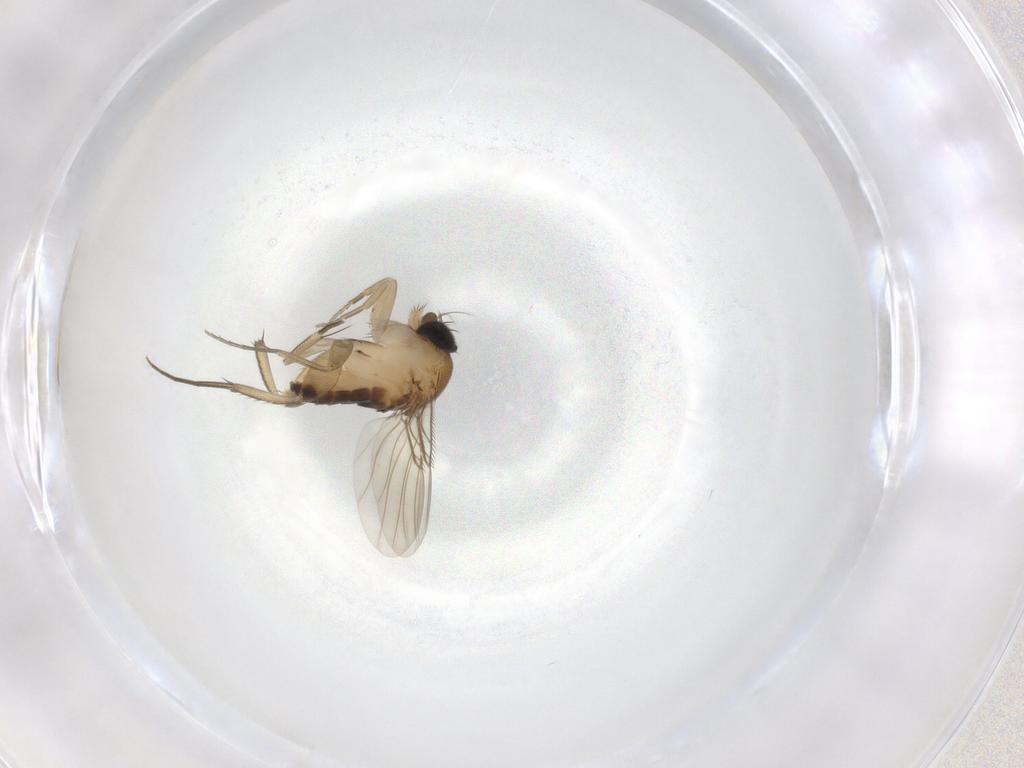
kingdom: Animalia
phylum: Arthropoda
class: Insecta
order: Diptera
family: Phoridae
